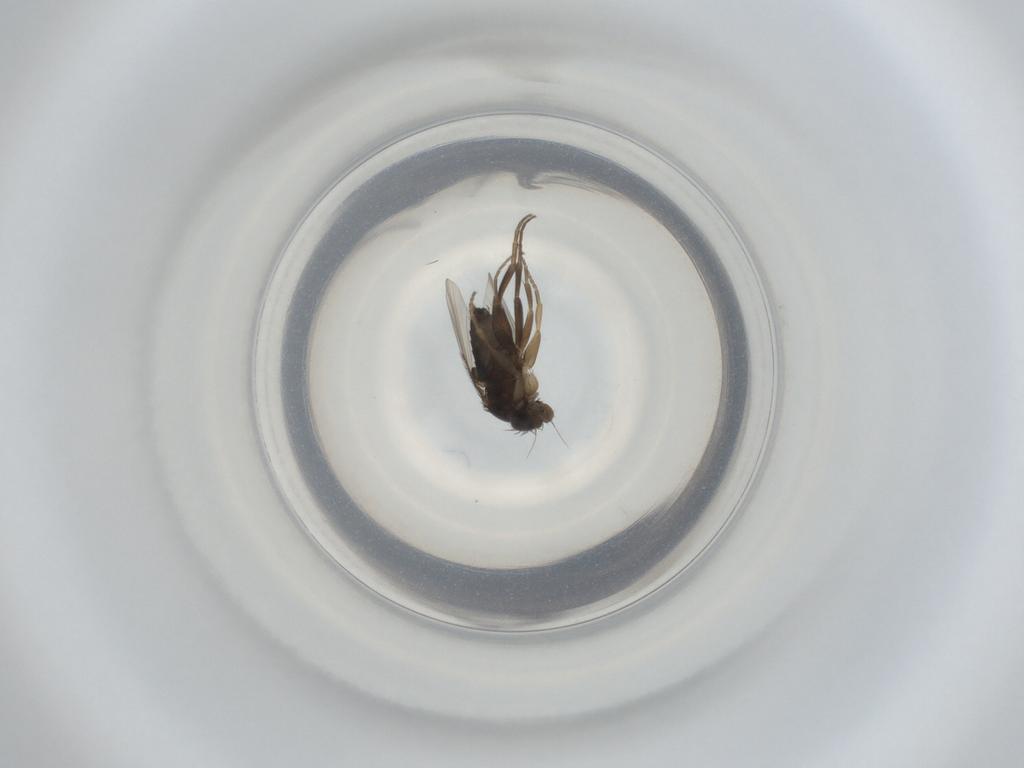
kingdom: Animalia
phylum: Arthropoda
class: Insecta
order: Diptera
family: Phoridae
